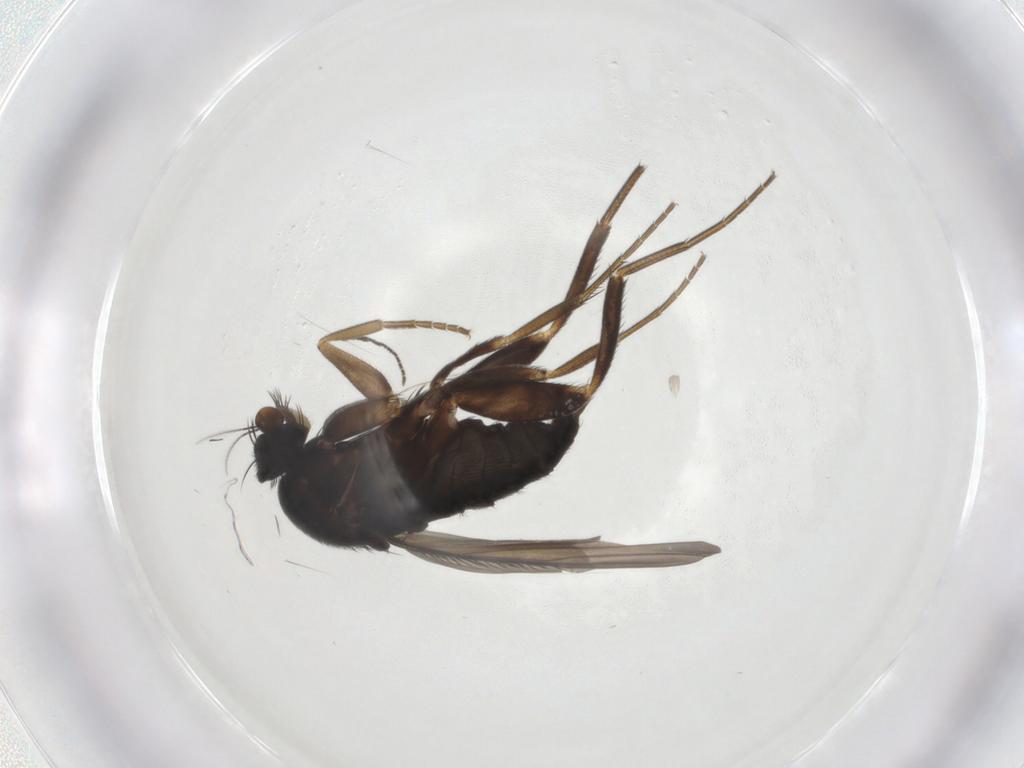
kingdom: Animalia
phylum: Arthropoda
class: Insecta
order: Diptera
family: Phoridae
